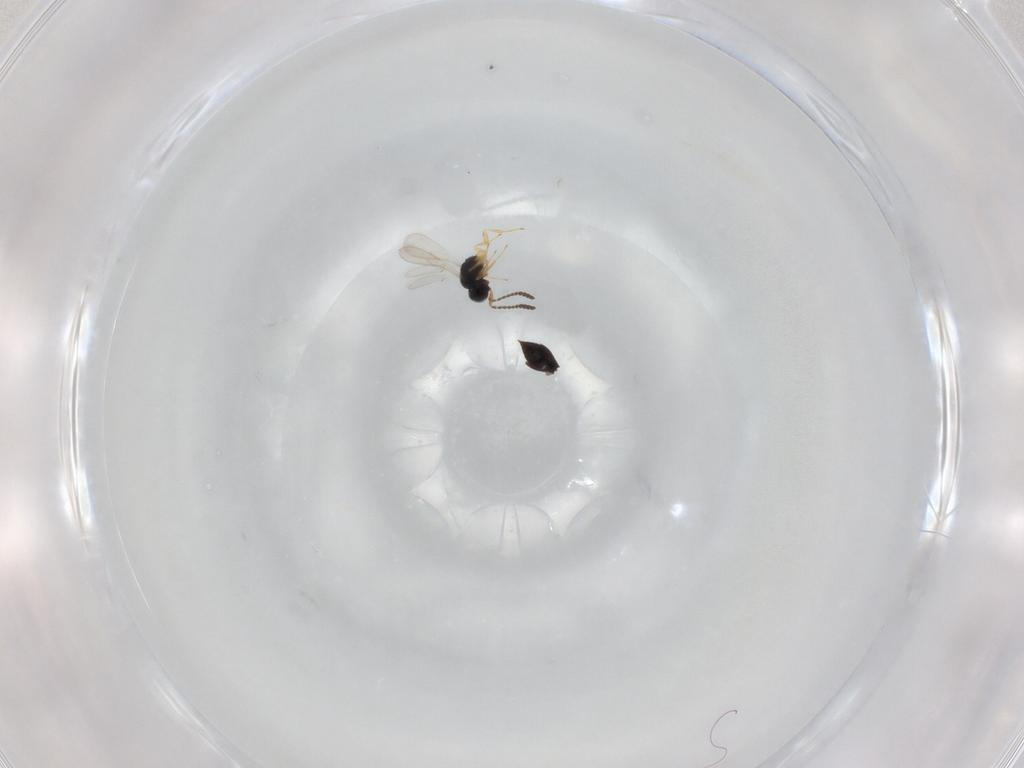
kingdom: Animalia
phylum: Arthropoda
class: Insecta
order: Hymenoptera
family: Scelionidae
